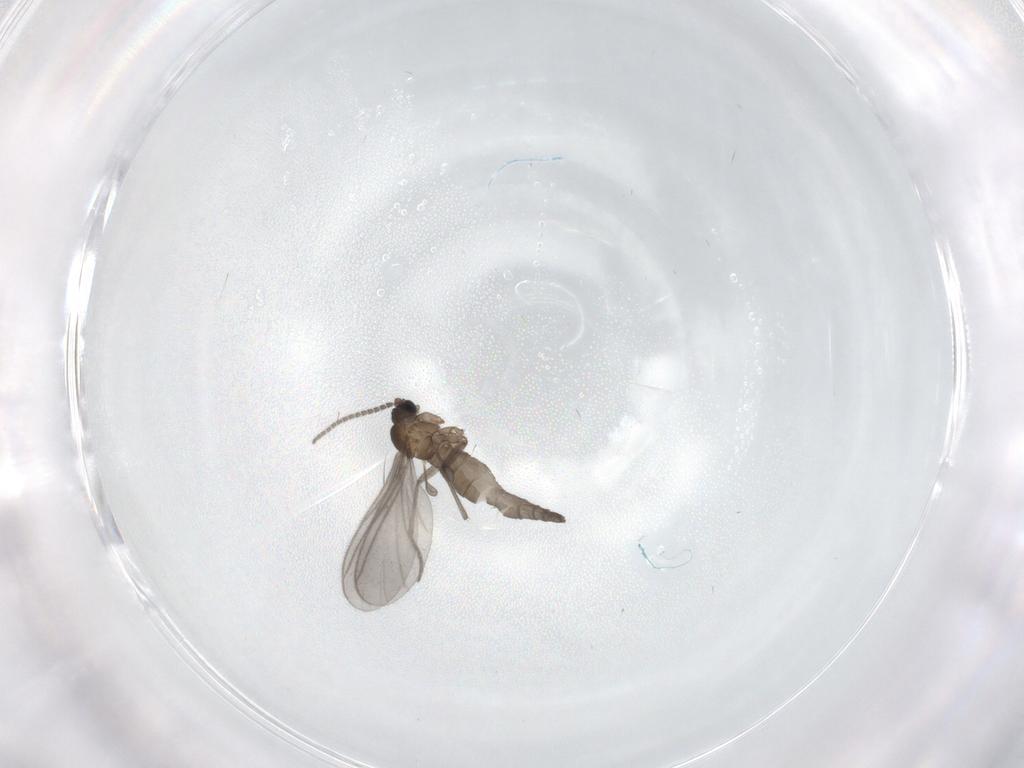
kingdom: Animalia
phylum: Arthropoda
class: Insecta
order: Diptera
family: Sciaridae
